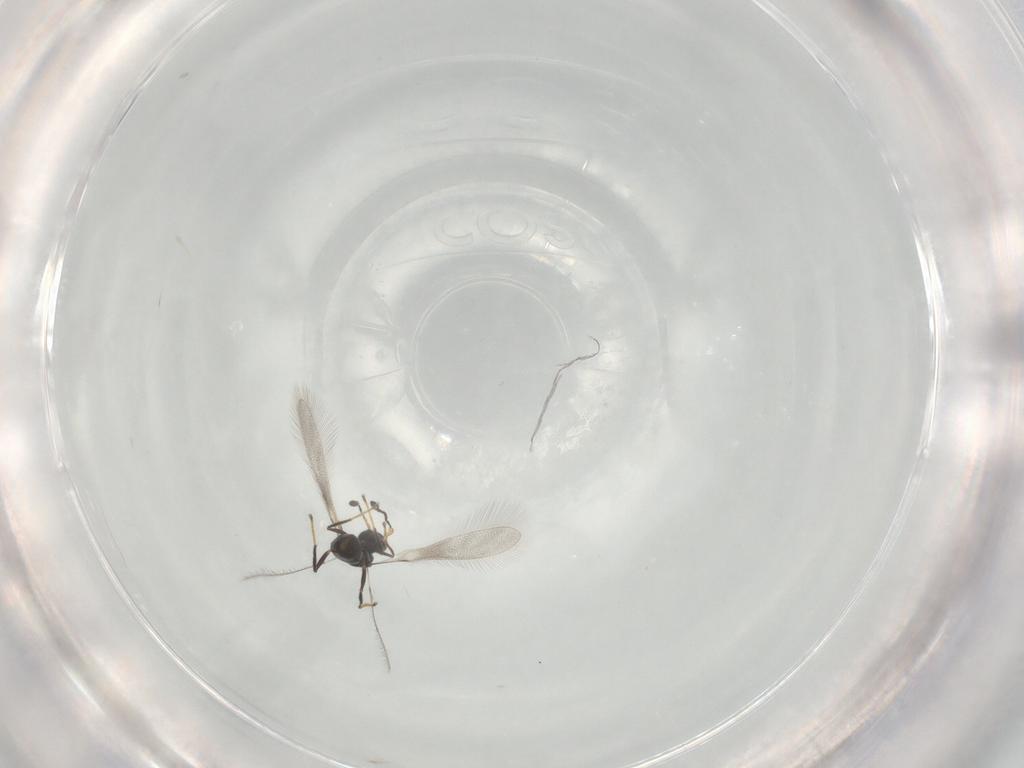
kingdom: Animalia
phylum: Arthropoda
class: Insecta
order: Hymenoptera
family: Mymaridae
